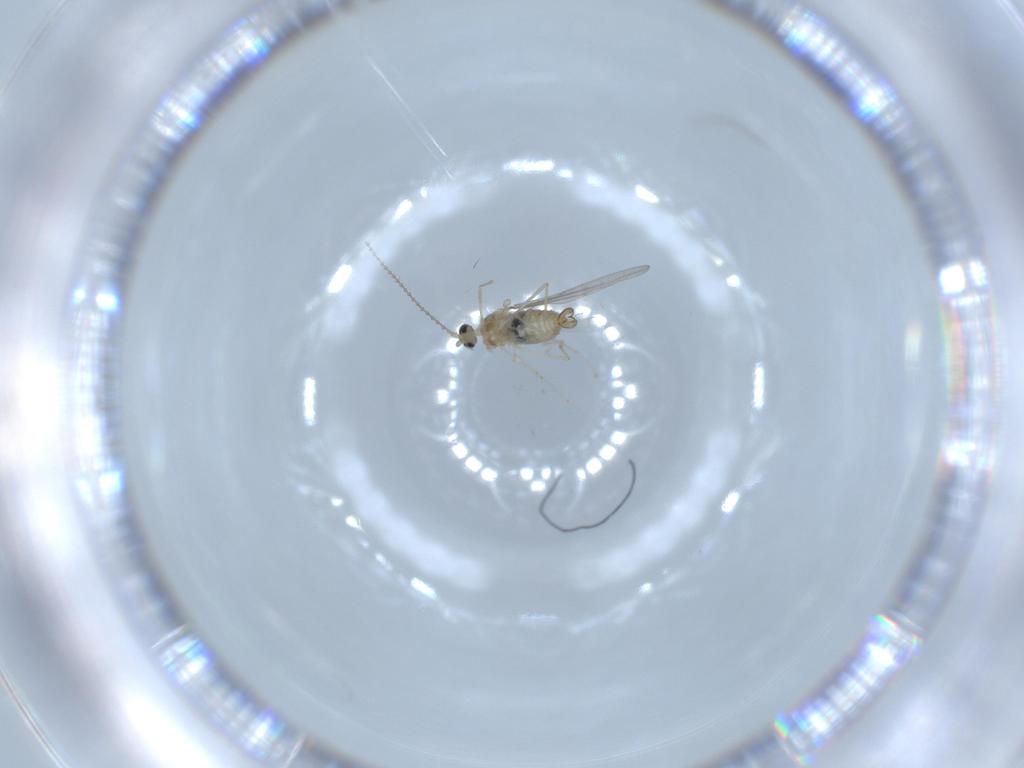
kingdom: Animalia
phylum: Arthropoda
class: Insecta
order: Diptera
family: Cecidomyiidae
